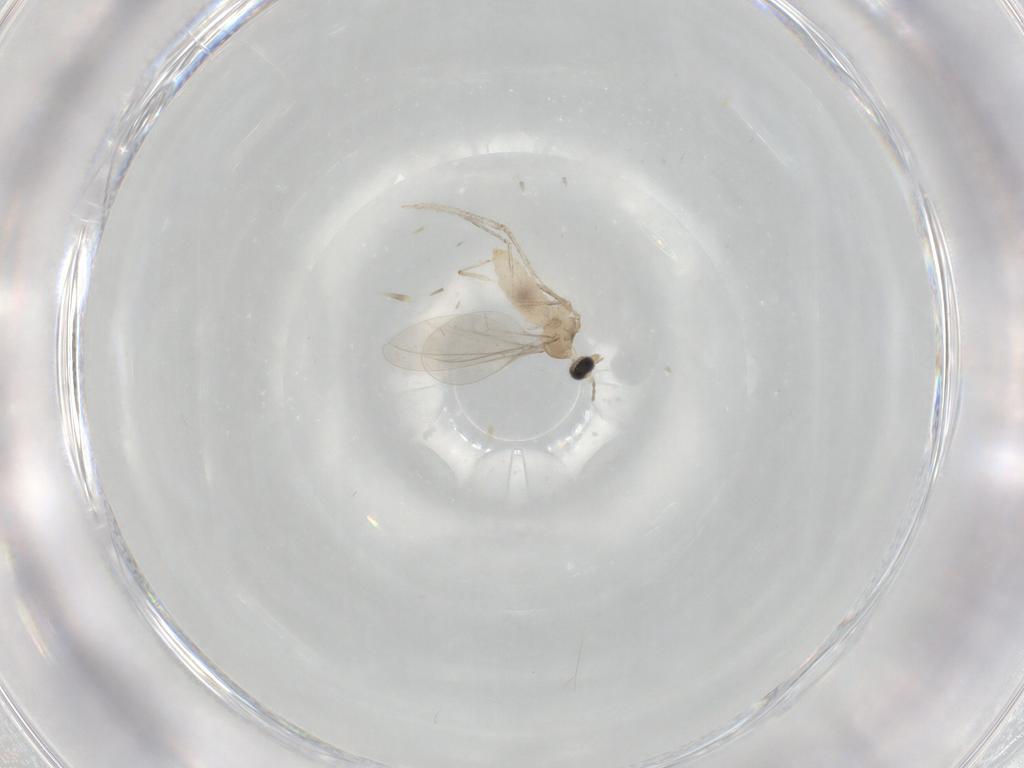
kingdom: Animalia
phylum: Arthropoda
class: Insecta
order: Diptera
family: Cecidomyiidae
